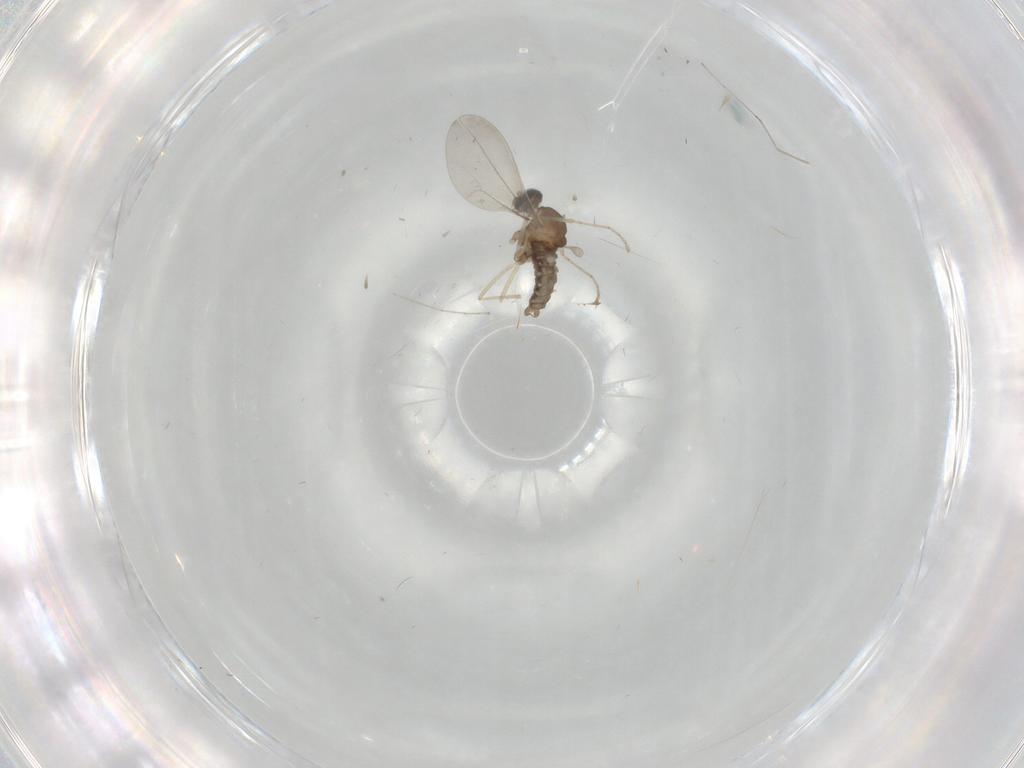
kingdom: Animalia
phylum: Arthropoda
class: Insecta
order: Diptera
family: Cecidomyiidae
